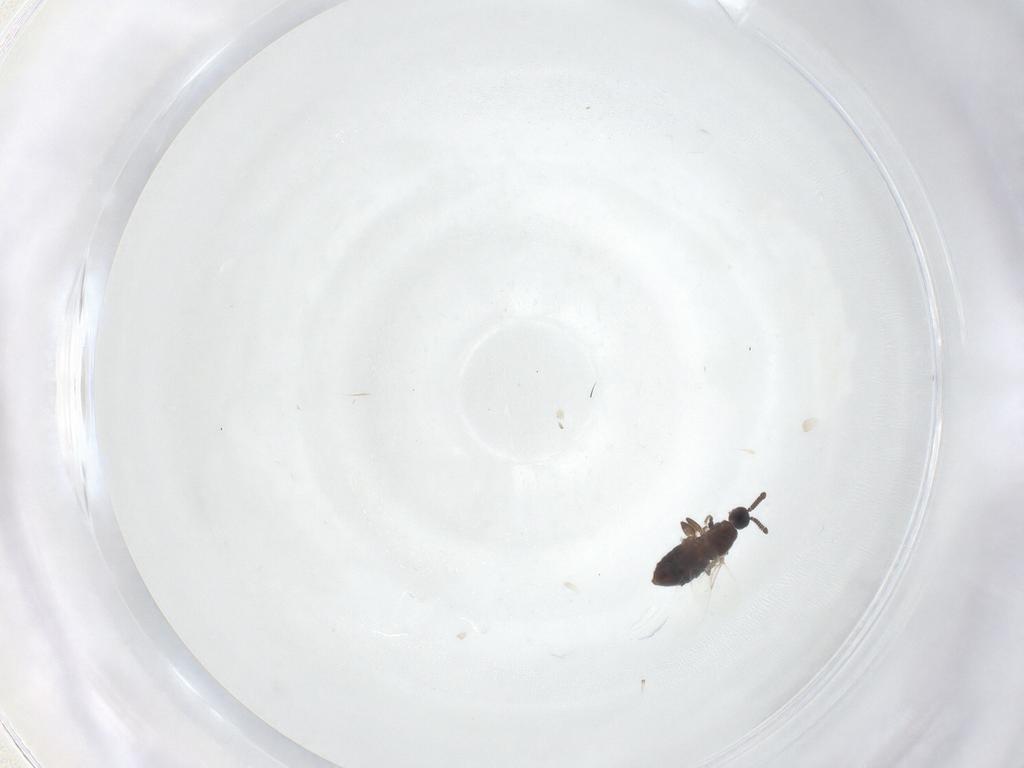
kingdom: Animalia
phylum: Arthropoda
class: Insecta
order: Diptera
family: Scatopsidae
